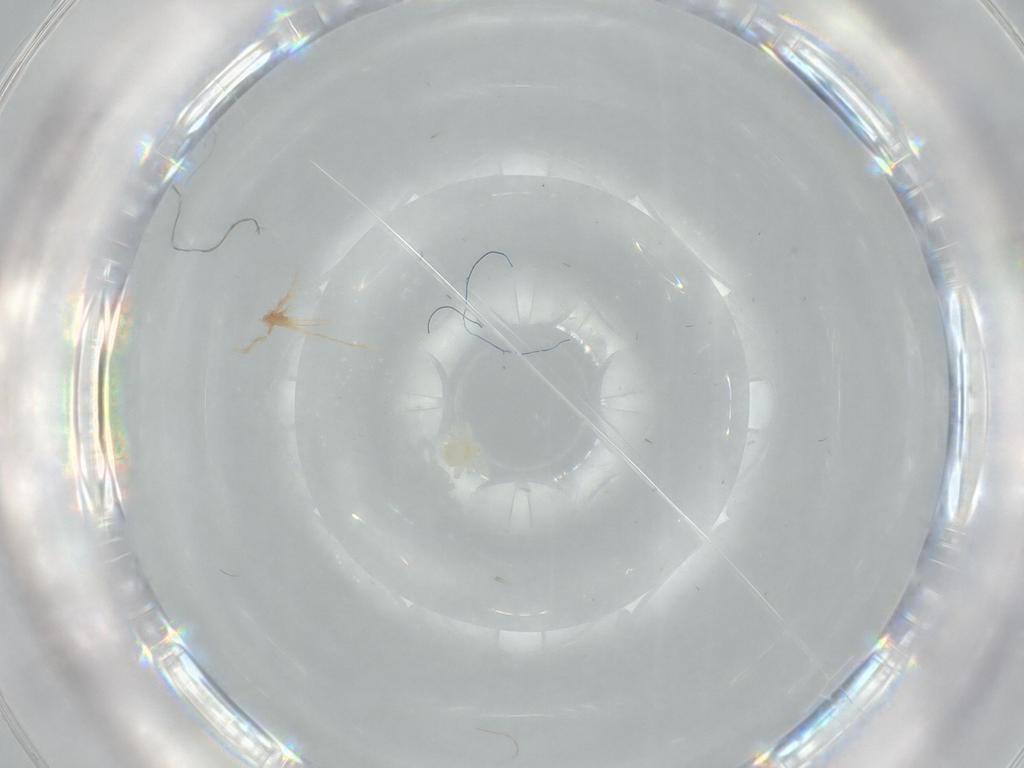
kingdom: Animalia
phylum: Arthropoda
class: Arachnida
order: Trombidiformes
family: Anystidae
